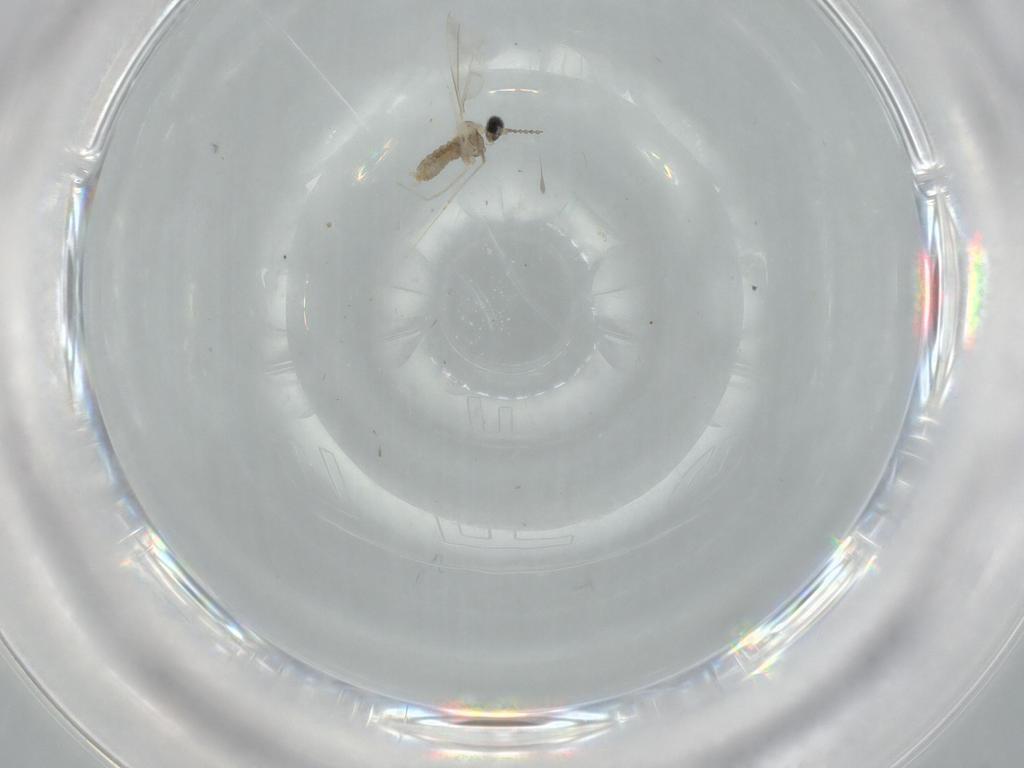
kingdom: Animalia
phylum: Arthropoda
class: Insecta
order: Diptera
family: Cecidomyiidae
